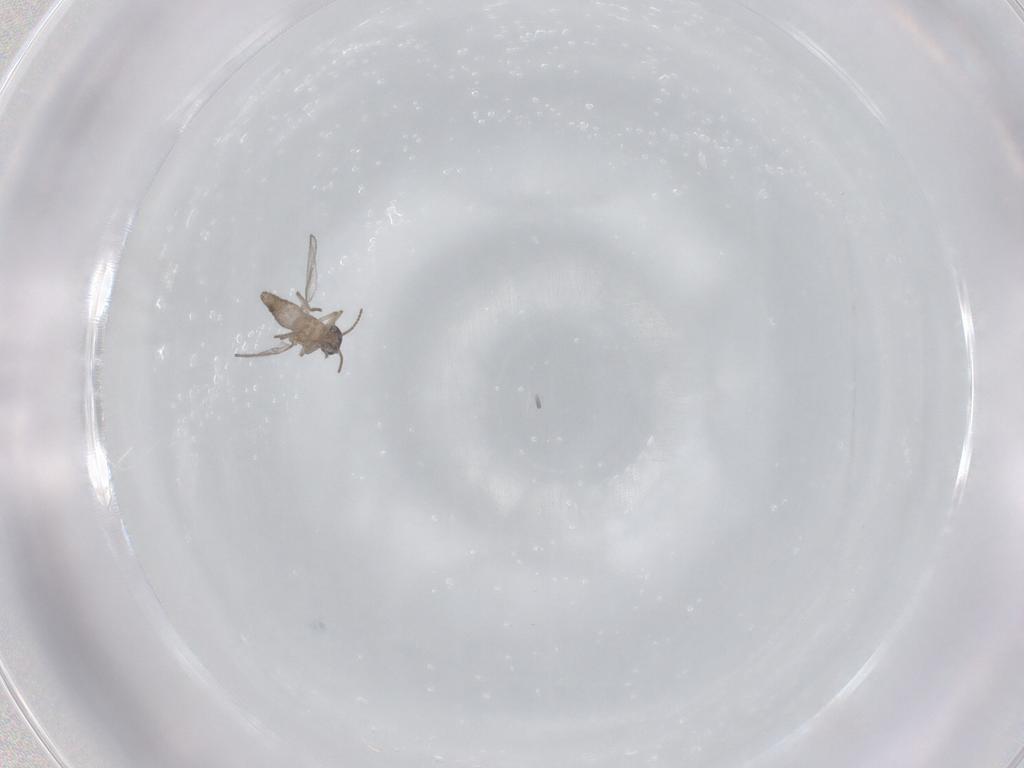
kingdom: Animalia
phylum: Arthropoda
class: Insecta
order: Diptera
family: Ceratopogonidae
